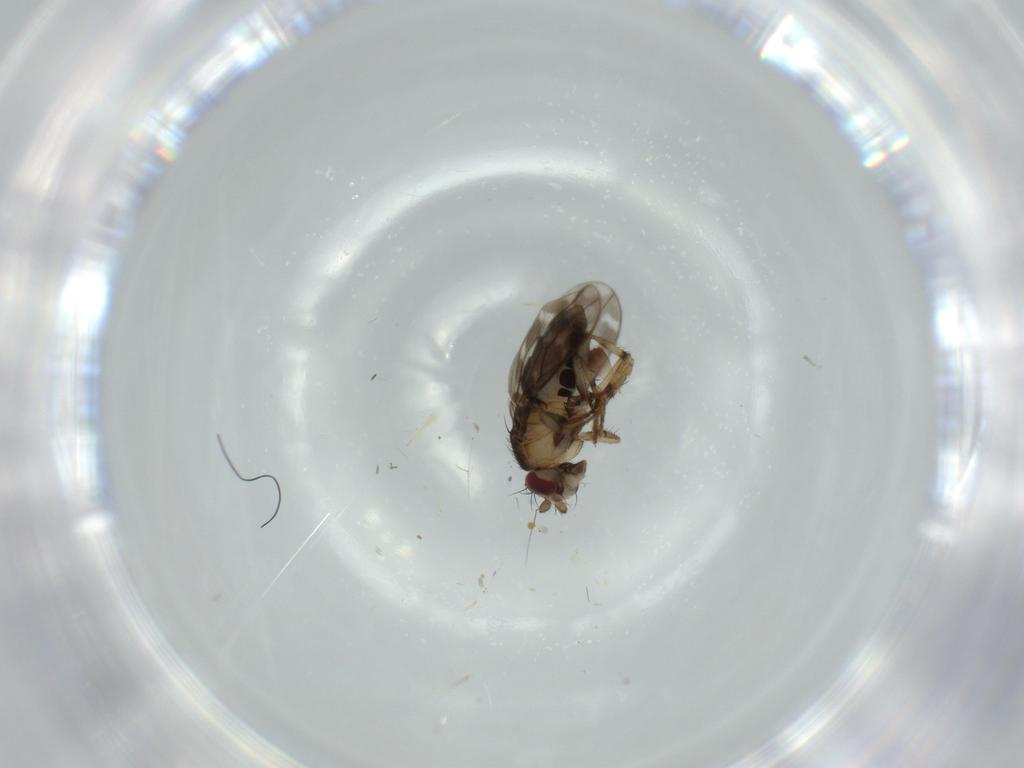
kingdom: Animalia
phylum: Arthropoda
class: Insecta
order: Diptera
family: Sphaeroceridae
